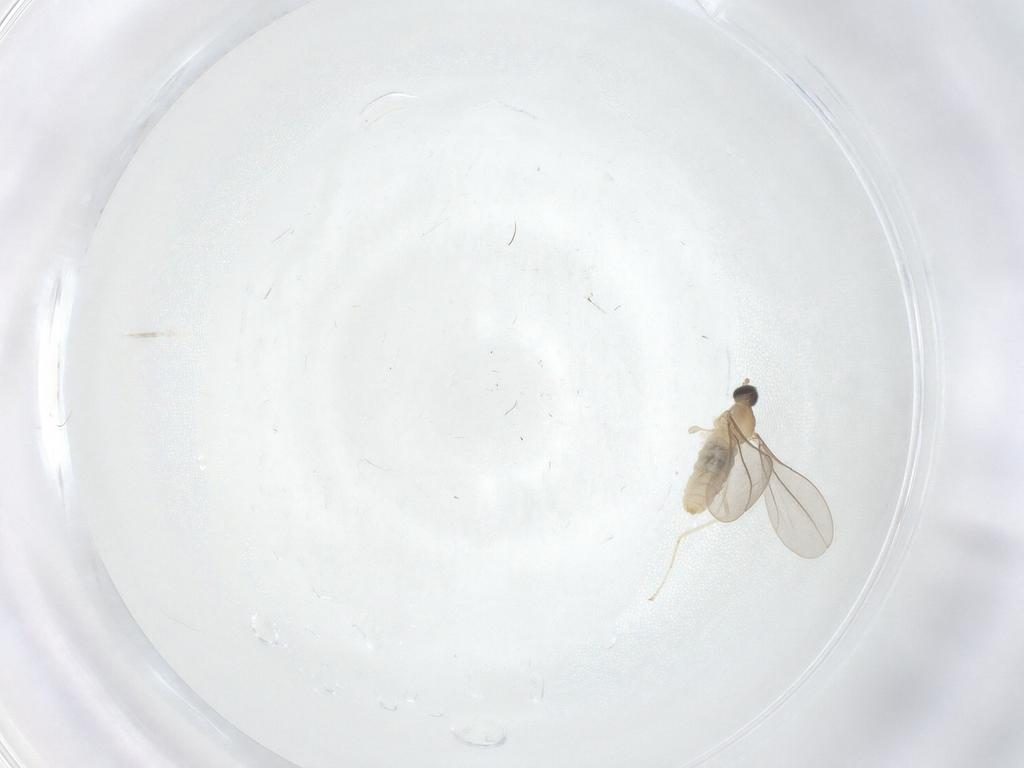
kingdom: Animalia
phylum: Arthropoda
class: Insecta
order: Diptera
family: Cecidomyiidae
